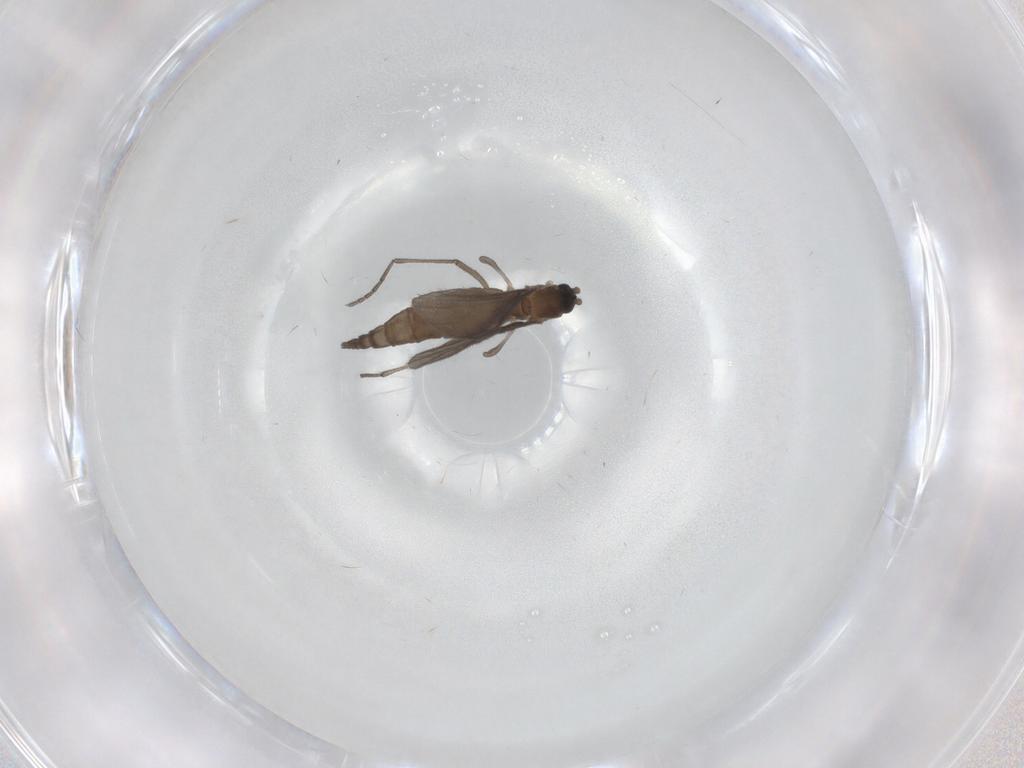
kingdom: Animalia
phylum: Arthropoda
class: Insecta
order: Diptera
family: Sciaridae
